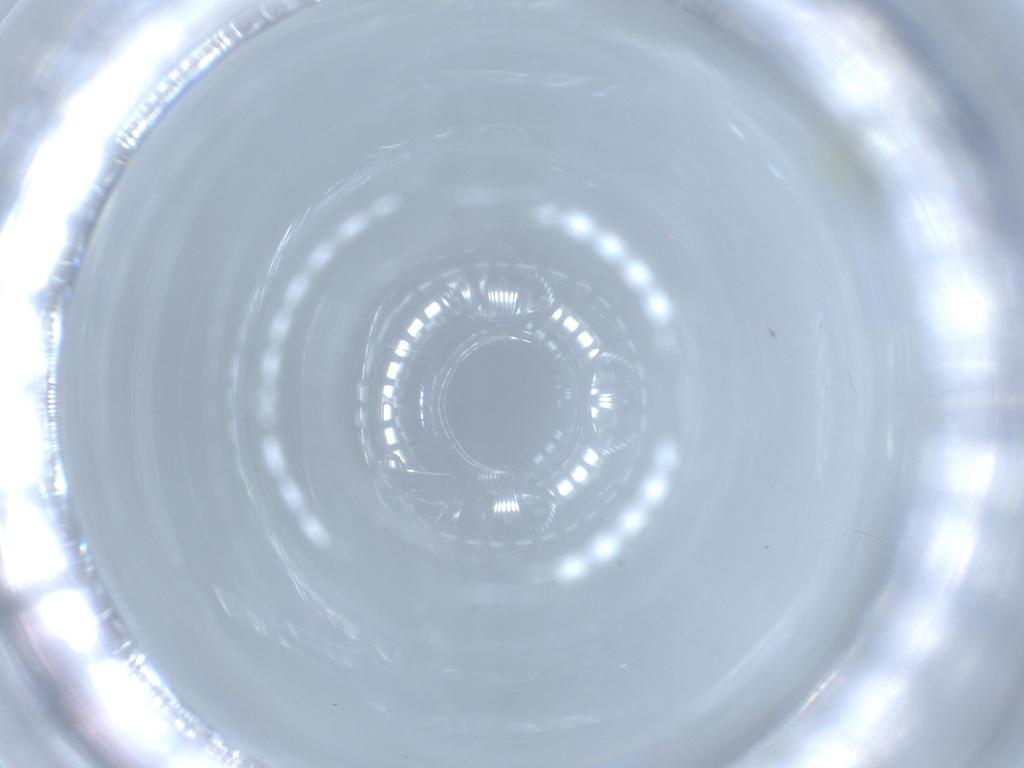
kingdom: Animalia
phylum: Arthropoda
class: Insecta
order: Diptera
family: Chironomidae
